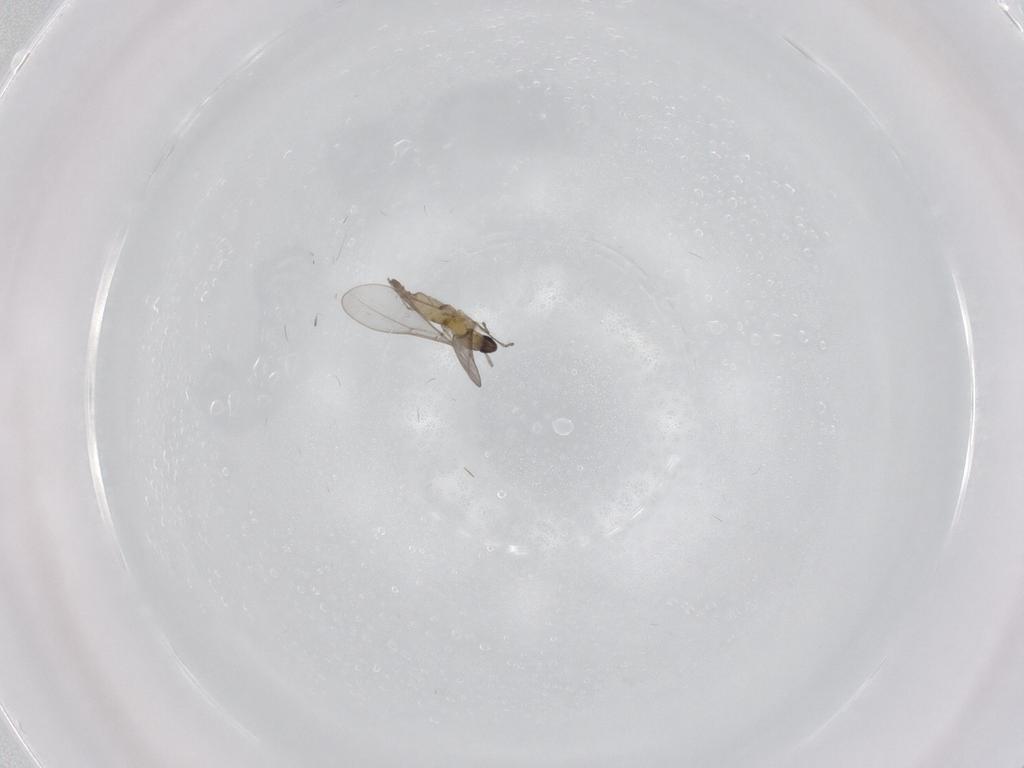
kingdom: Animalia
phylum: Arthropoda
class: Insecta
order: Diptera
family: Cecidomyiidae
